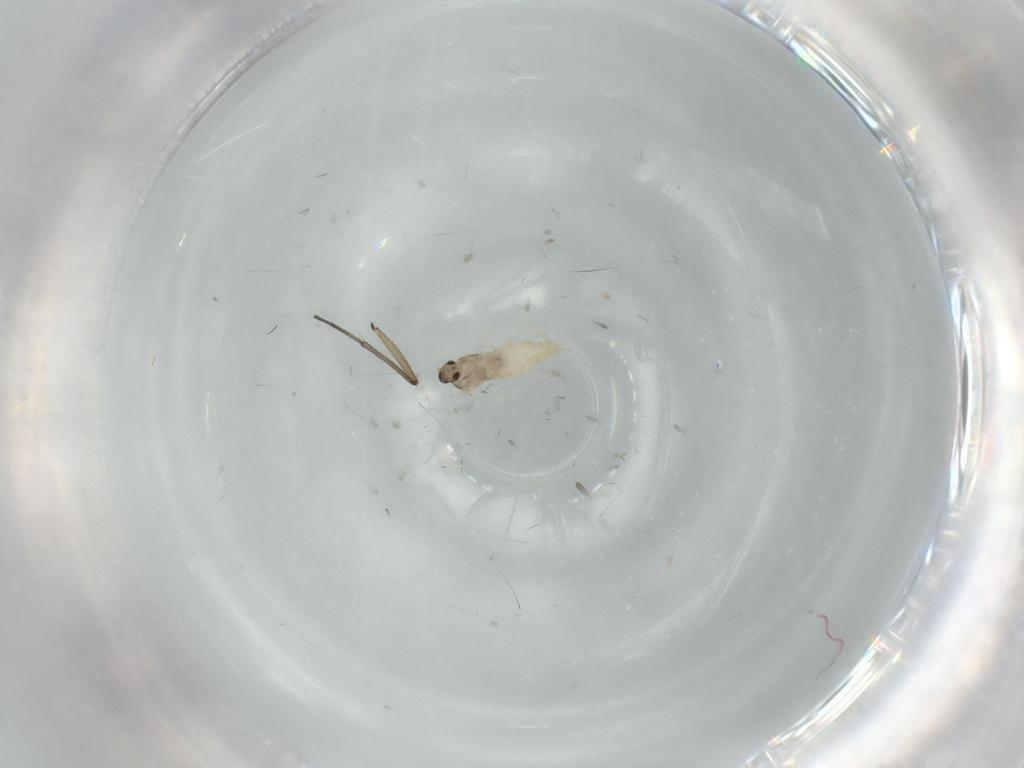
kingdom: Animalia
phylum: Arthropoda
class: Insecta
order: Diptera
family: Cecidomyiidae
